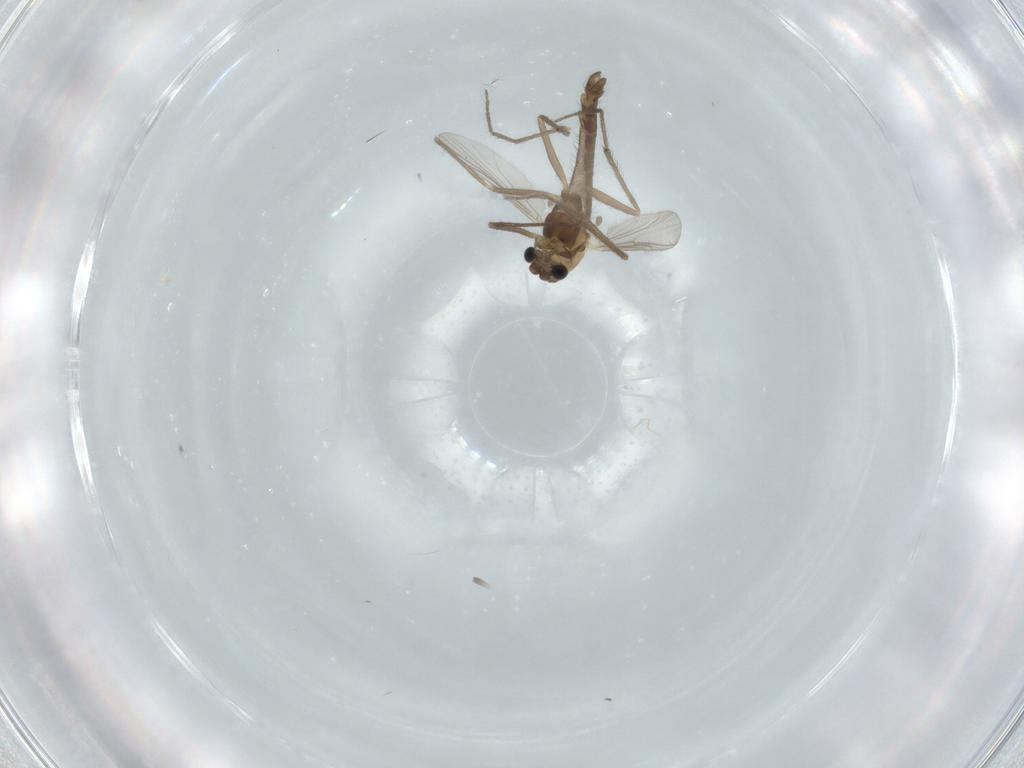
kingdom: Animalia
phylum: Arthropoda
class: Insecta
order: Diptera
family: Chironomidae
